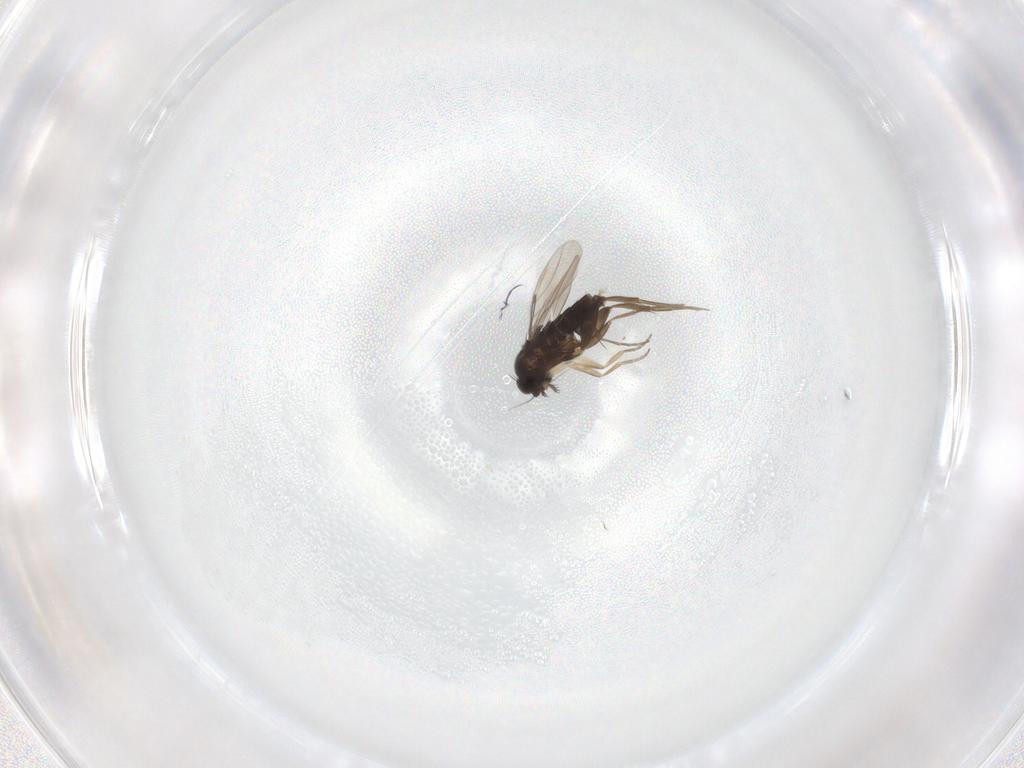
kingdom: Animalia
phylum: Arthropoda
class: Insecta
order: Diptera
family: Phoridae
